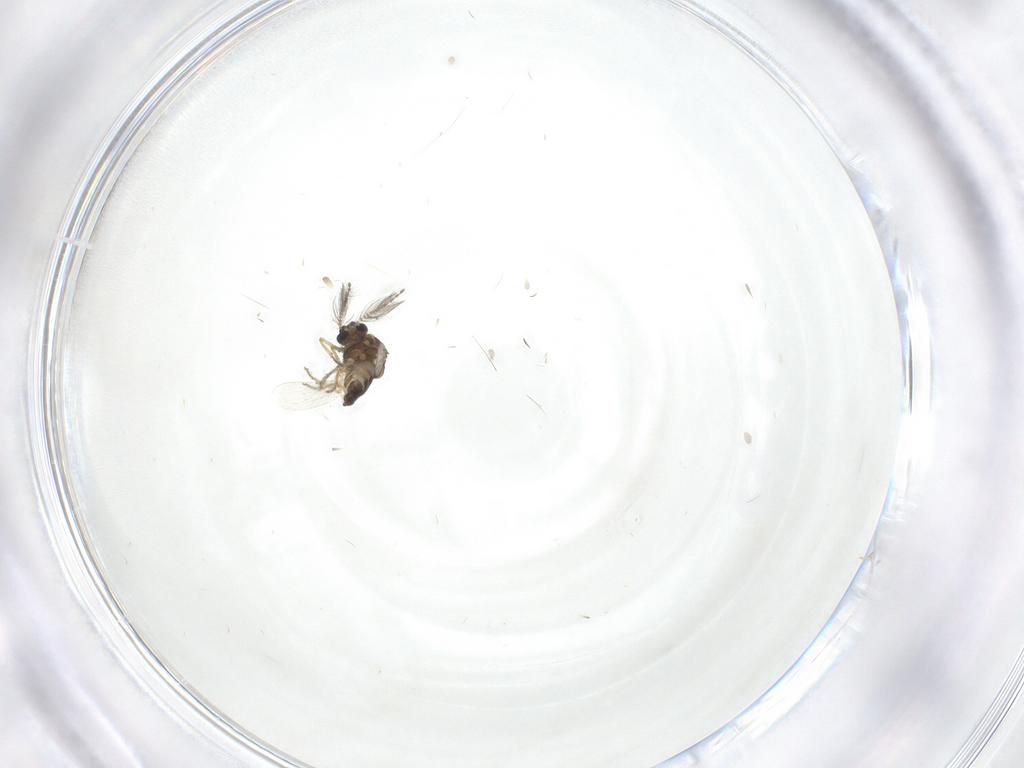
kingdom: Animalia
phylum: Arthropoda
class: Insecta
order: Diptera
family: Ceratopogonidae
